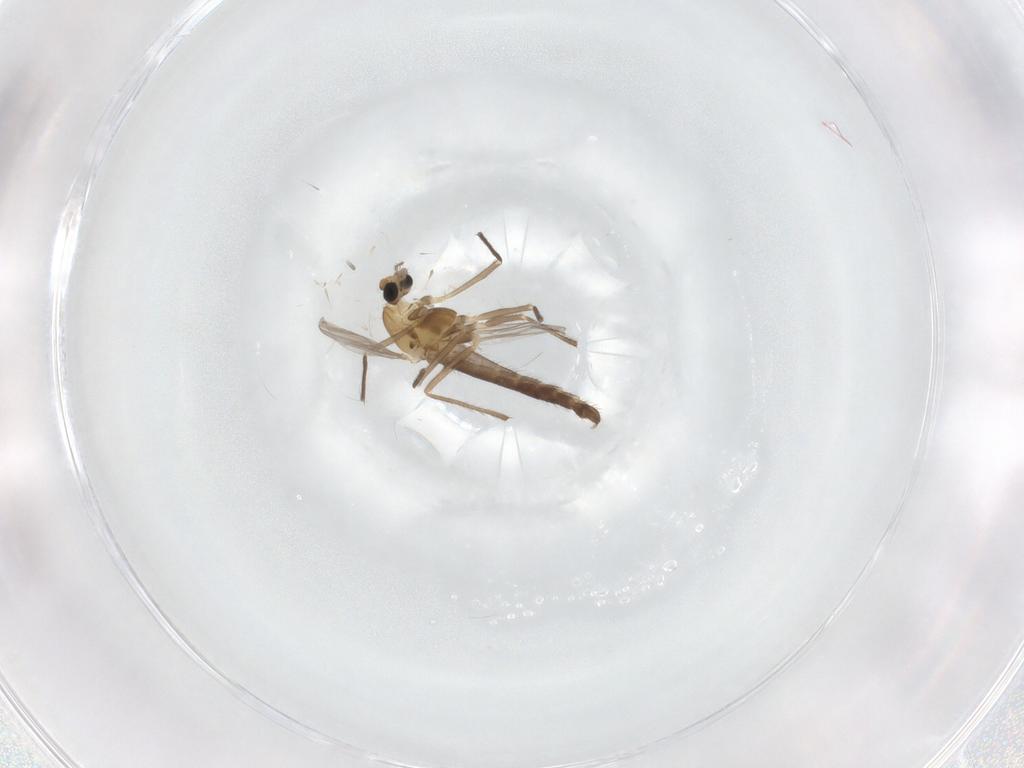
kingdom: Animalia
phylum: Arthropoda
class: Insecta
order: Diptera
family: Chironomidae
